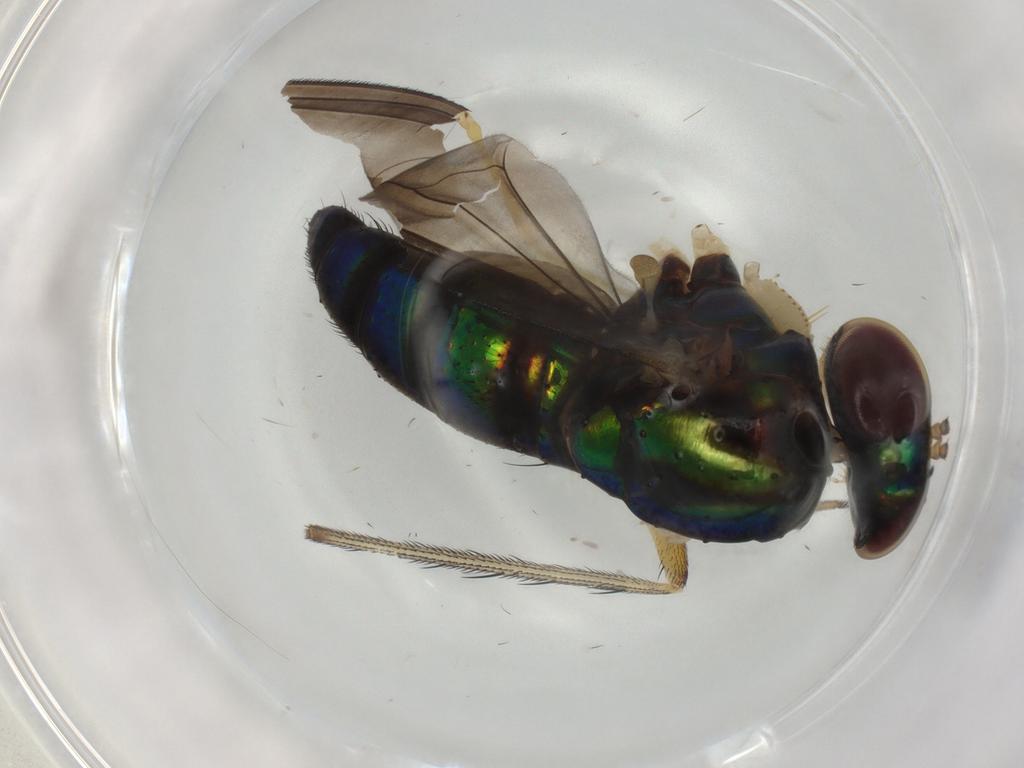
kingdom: Animalia
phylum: Arthropoda
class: Insecta
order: Diptera
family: Dolichopodidae
